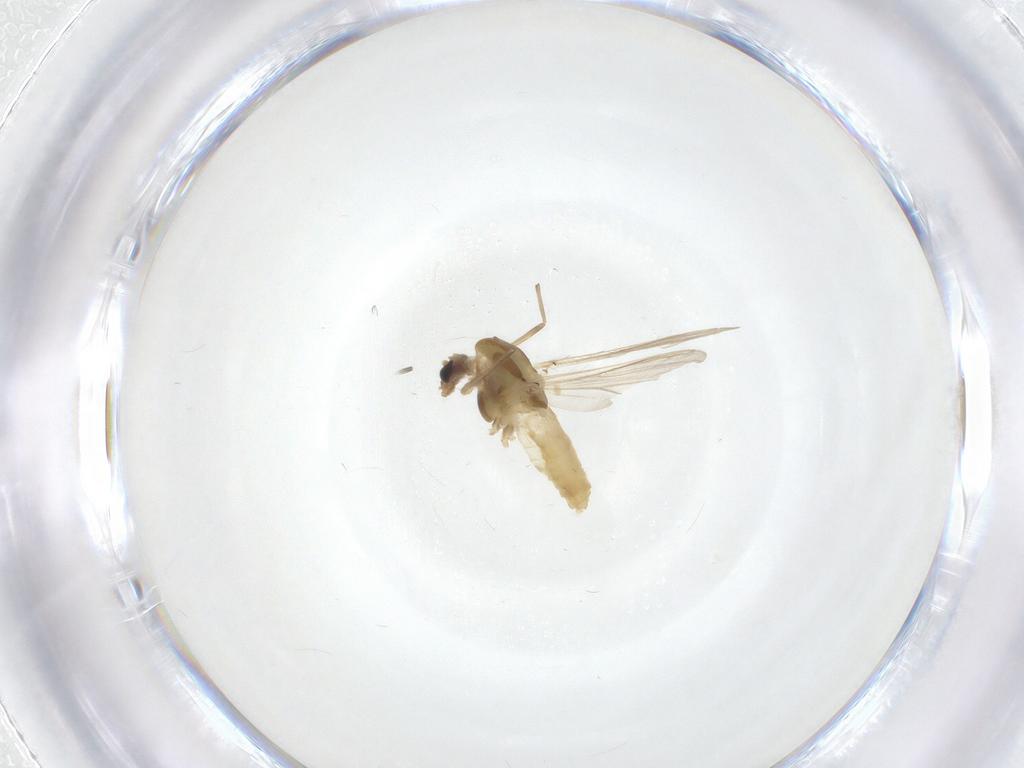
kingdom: Animalia
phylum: Arthropoda
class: Insecta
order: Diptera
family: Chironomidae
